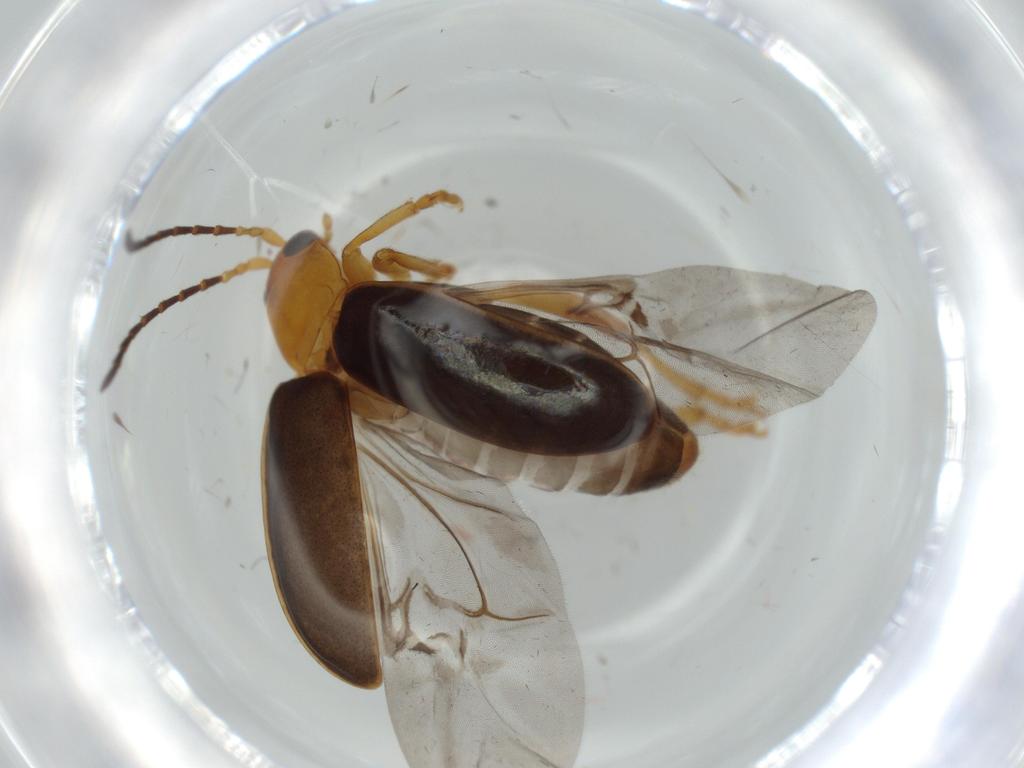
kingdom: Animalia
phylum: Arthropoda
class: Insecta
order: Coleoptera
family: Chrysomelidae
